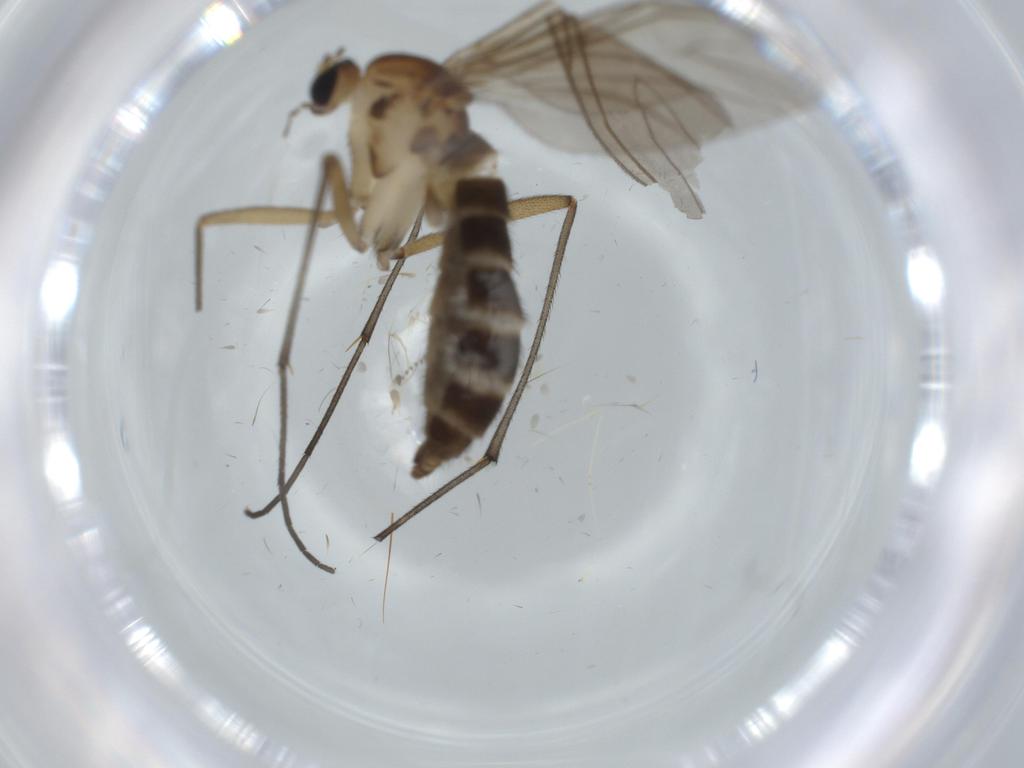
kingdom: Animalia
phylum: Arthropoda
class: Insecta
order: Diptera
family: Sciaridae
